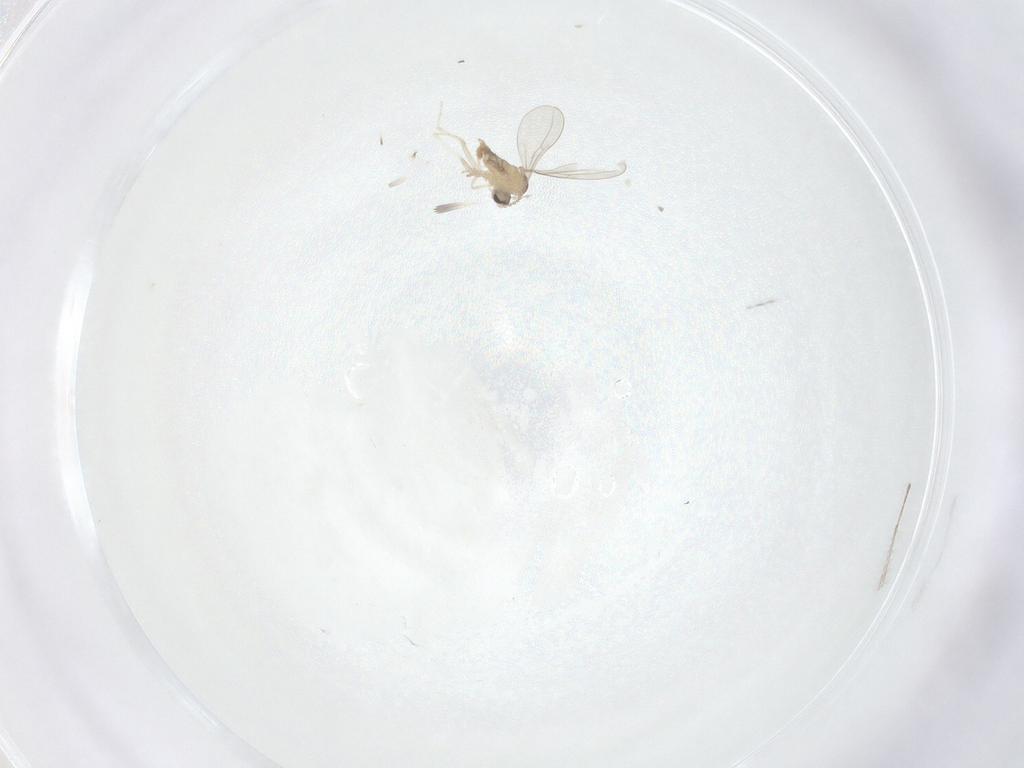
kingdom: Animalia
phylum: Arthropoda
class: Insecta
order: Diptera
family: Cecidomyiidae
